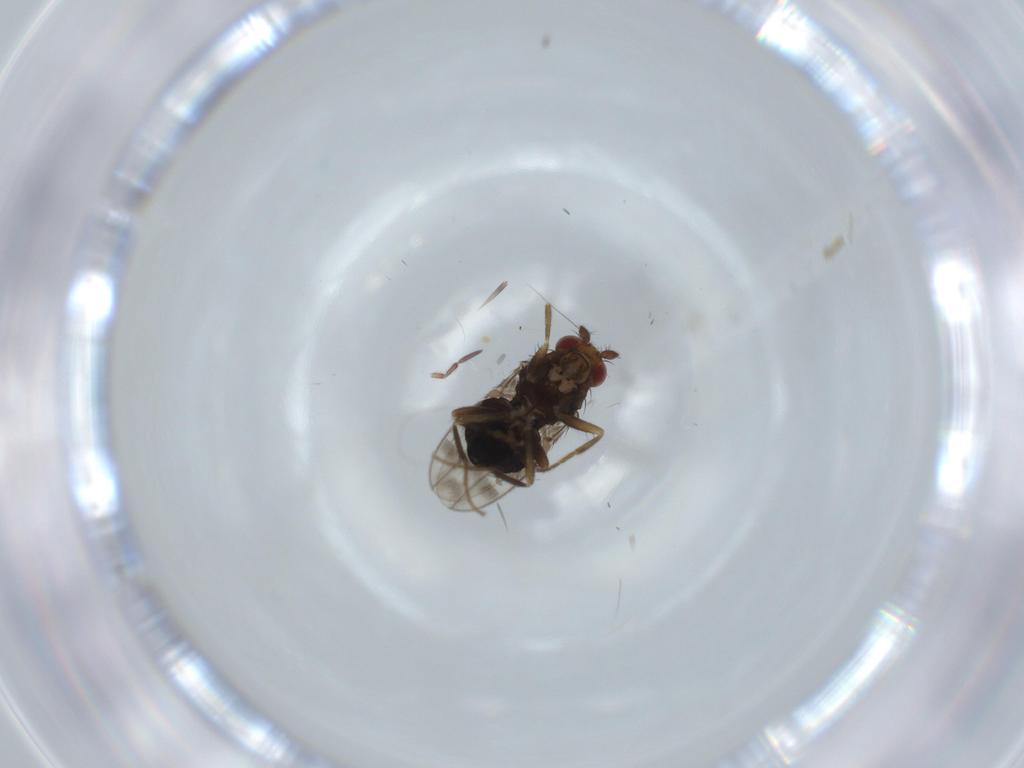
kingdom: Animalia
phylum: Arthropoda
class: Insecta
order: Diptera
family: Sphaeroceridae
